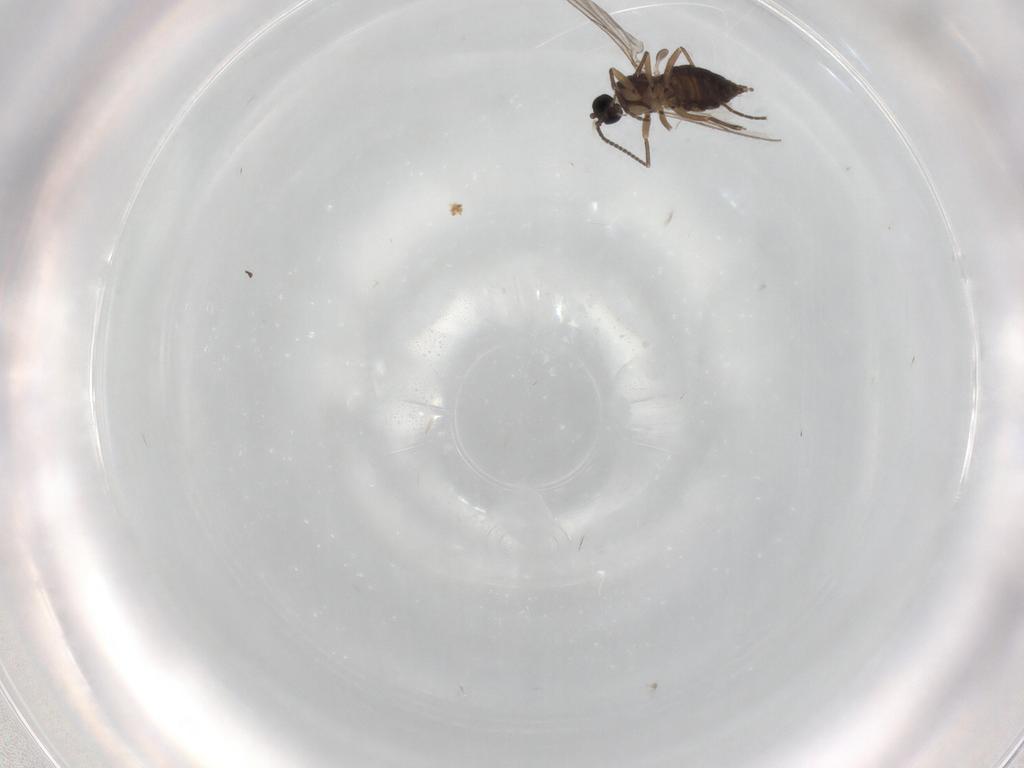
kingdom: Animalia
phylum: Arthropoda
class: Insecta
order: Diptera
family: Sciaridae
